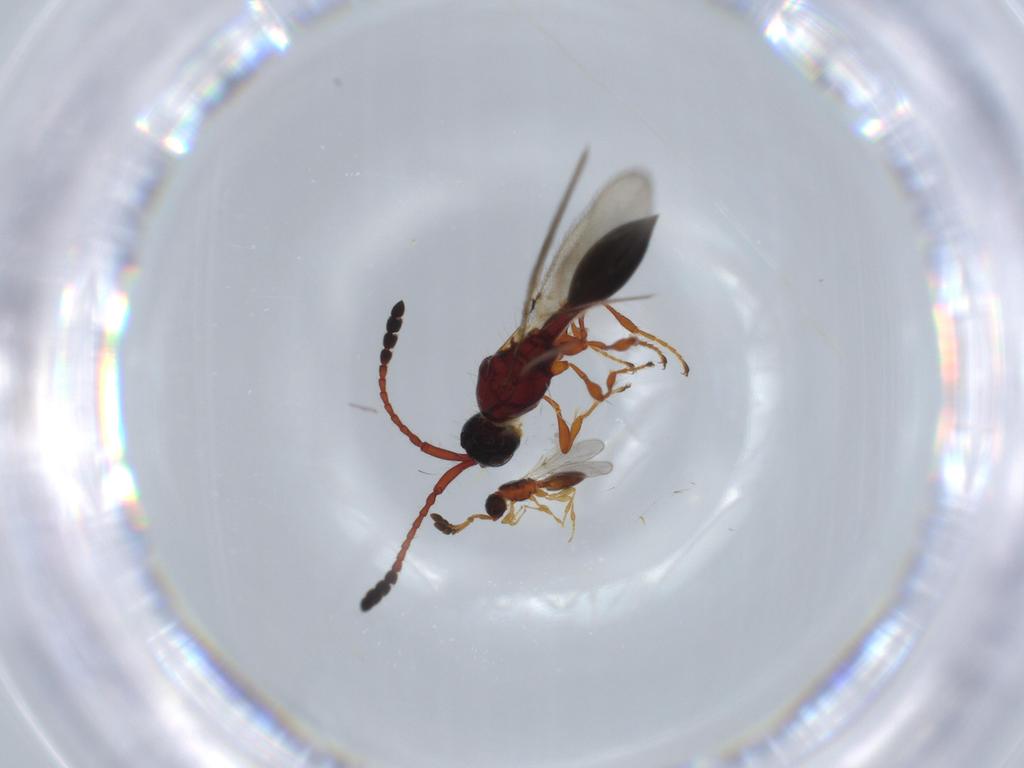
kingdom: Animalia
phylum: Arthropoda
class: Insecta
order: Hymenoptera
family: Diapriidae
